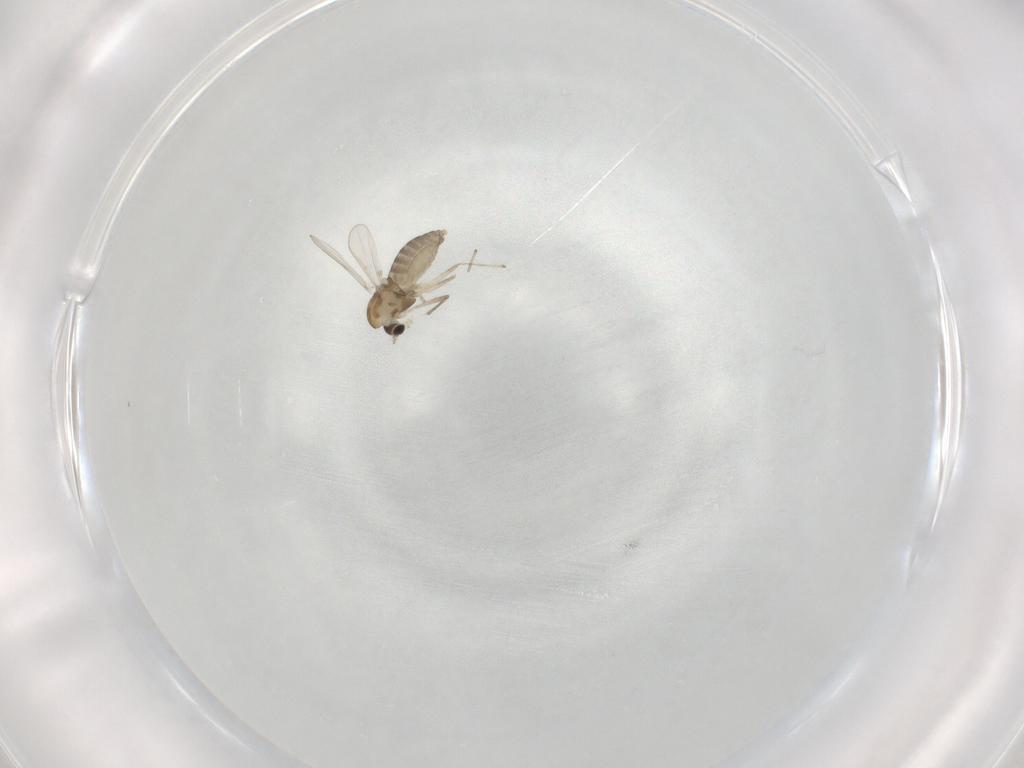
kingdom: Animalia
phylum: Arthropoda
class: Insecta
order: Diptera
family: Chironomidae
